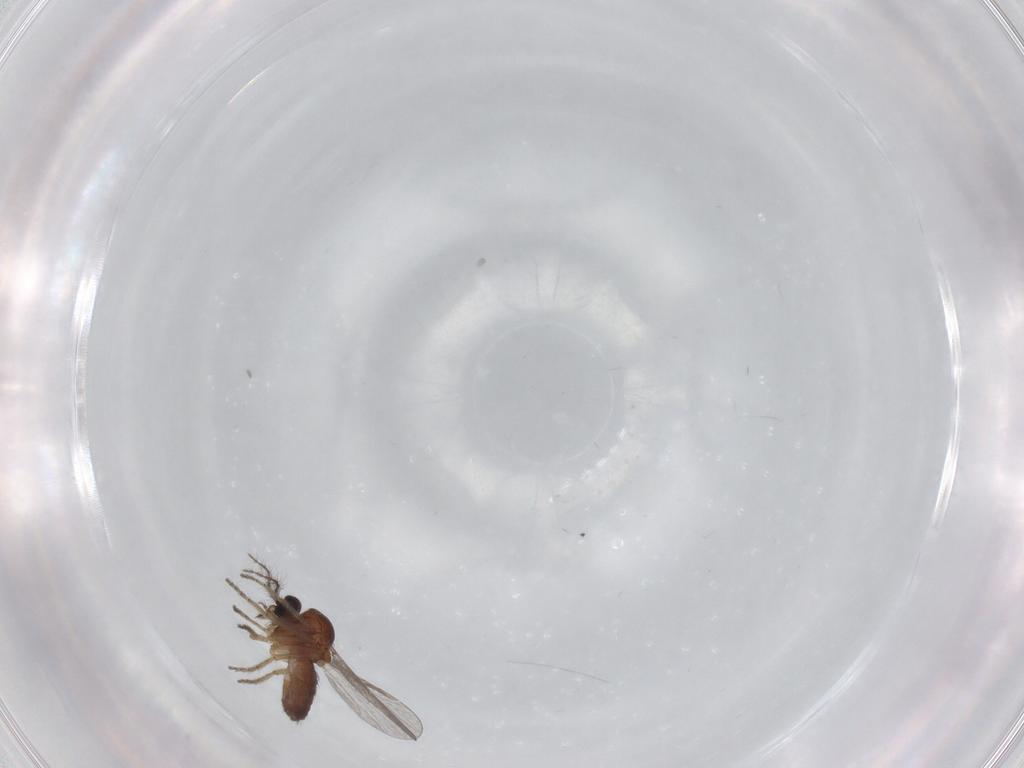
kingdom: Animalia
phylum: Arthropoda
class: Insecta
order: Diptera
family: Ceratopogonidae
